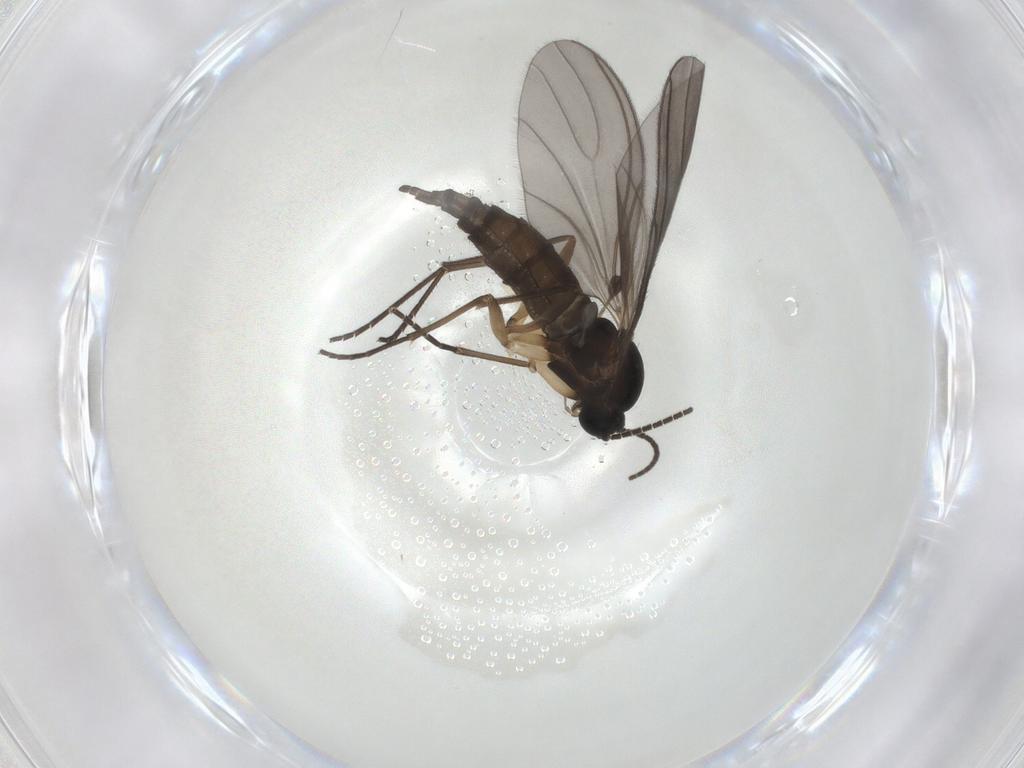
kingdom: Animalia
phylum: Arthropoda
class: Insecta
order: Diptera
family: Sciaridae
